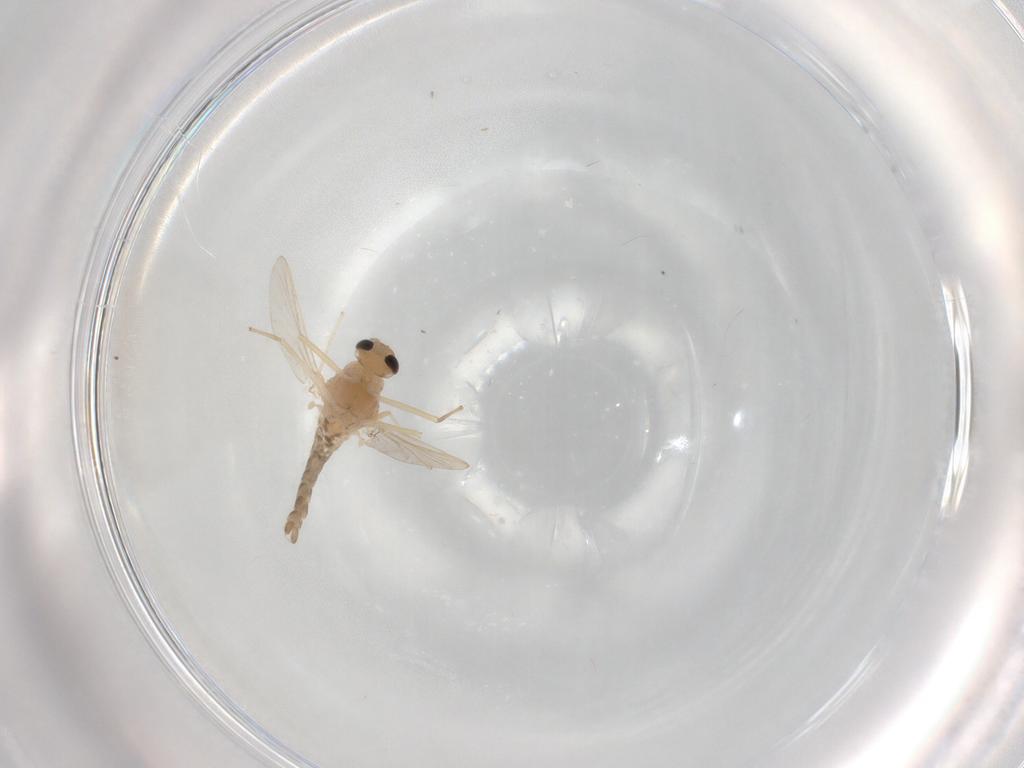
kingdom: Animalia
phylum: Arthropoda
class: Insecta
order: Diptera
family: Chironomidae
